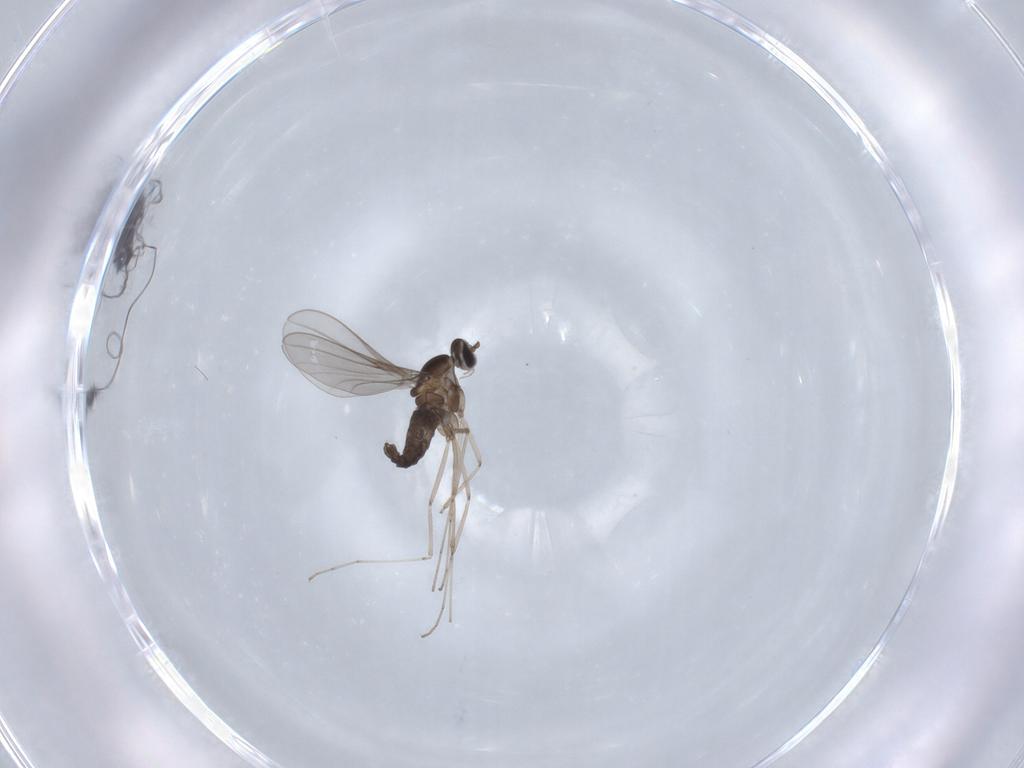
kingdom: Animalia
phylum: Arthropoda
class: Insecta
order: Diptera
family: Cecidomyiidae
